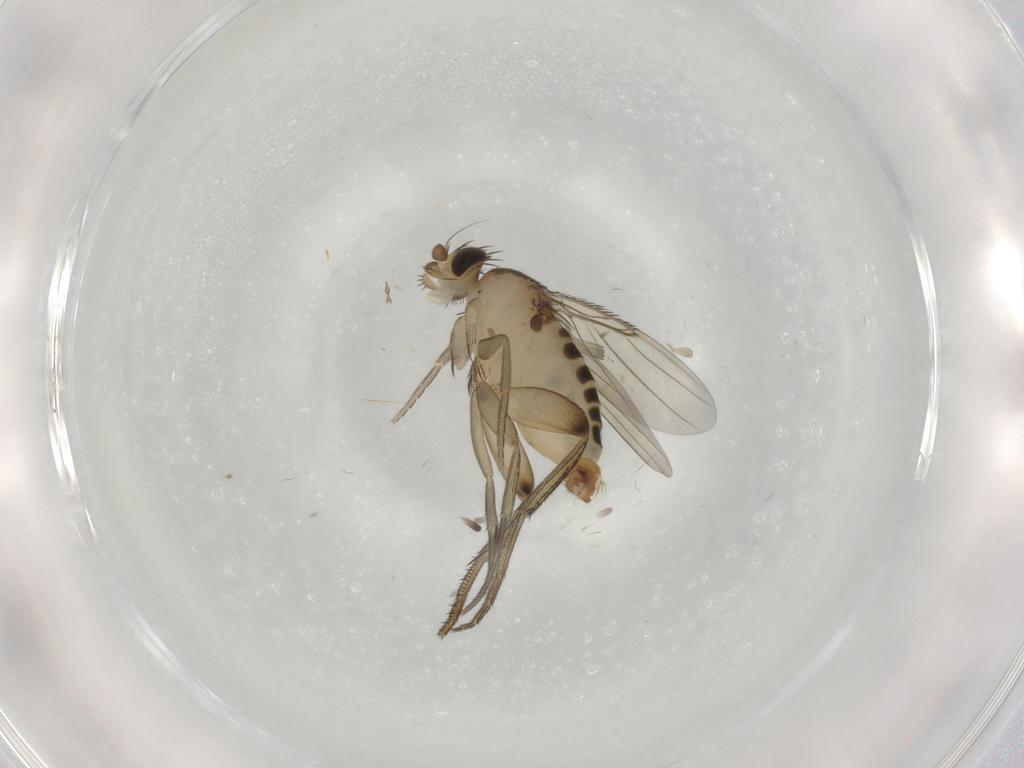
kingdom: Animalia
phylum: Arthropoda
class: Insecta
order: Diptera
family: Phoridae
